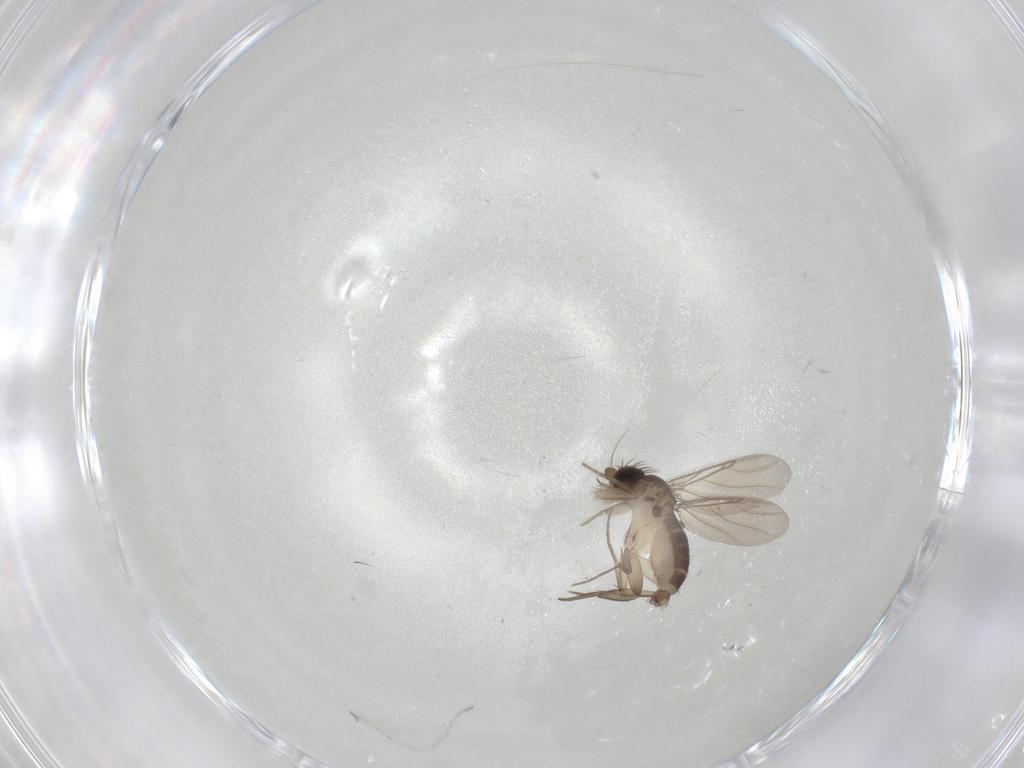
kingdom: Animalia
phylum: Arthropoda
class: Insecta
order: Diptera
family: Phoridae
